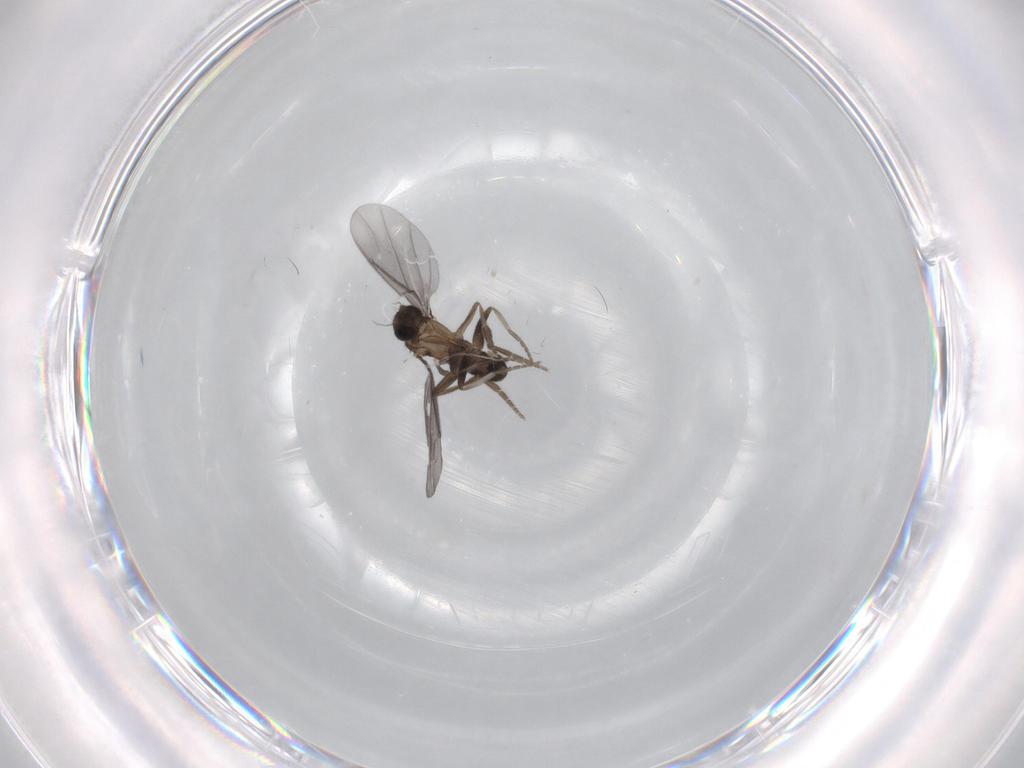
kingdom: Animalia
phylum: Arthropoda
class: Insecta
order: Diptera
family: Phoridae
